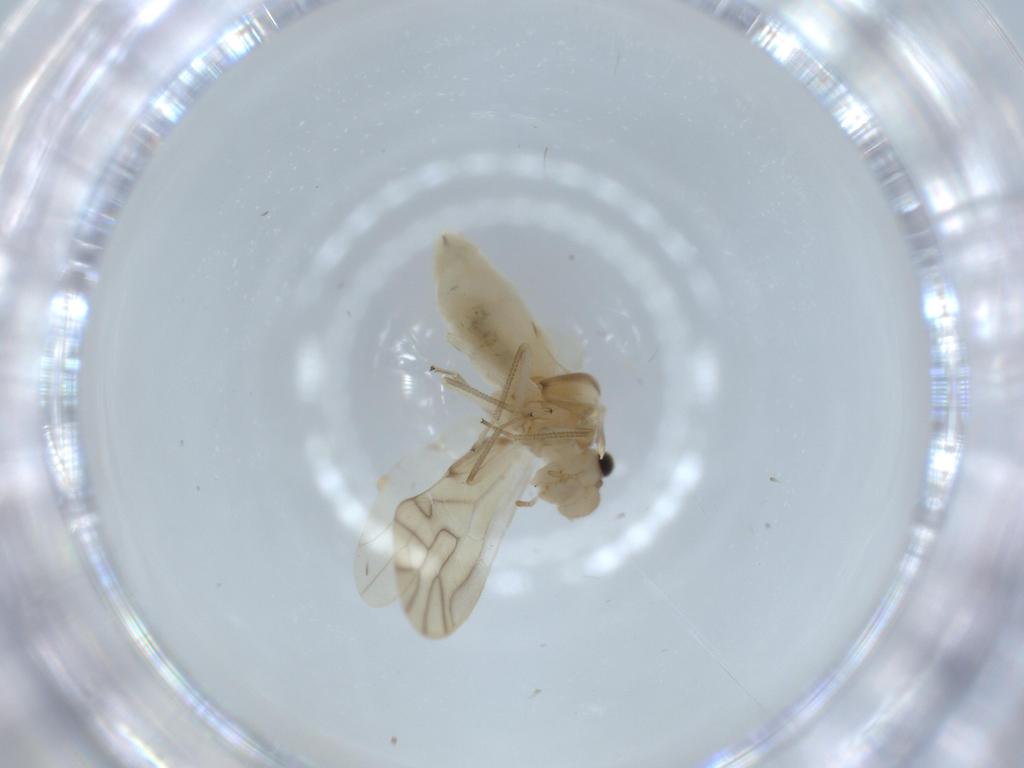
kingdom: Animalia
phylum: Arthropoda
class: Insecta
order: Psocodea
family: Caeciliusidae
